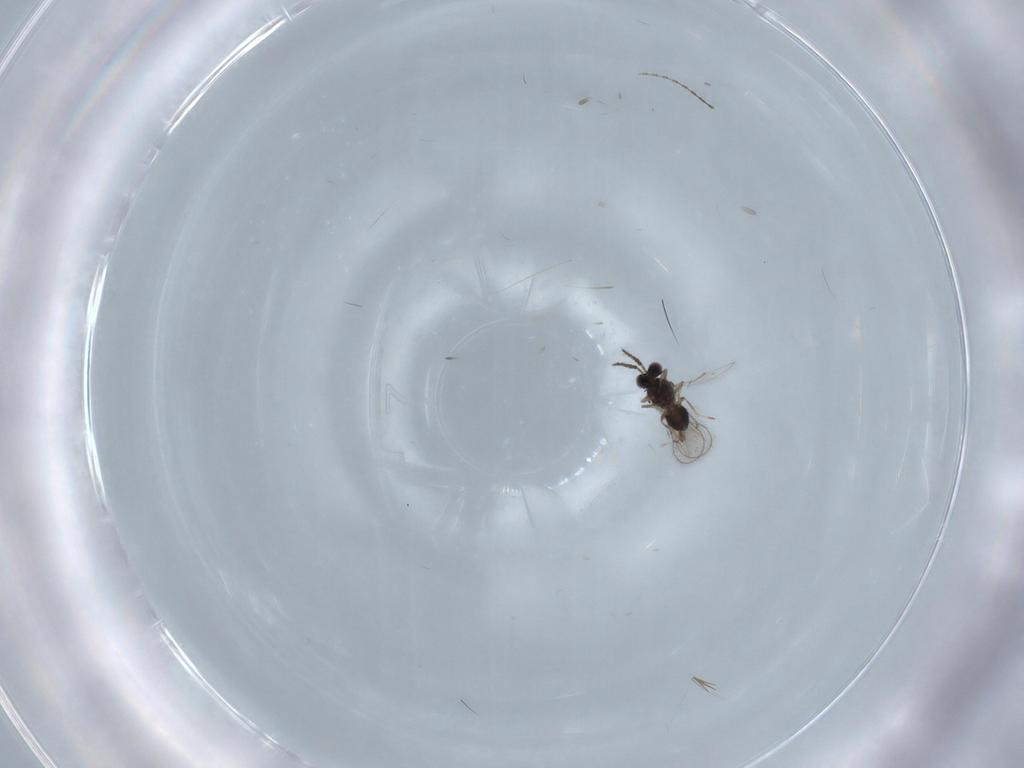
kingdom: Animalia
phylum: Arthropoda
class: Insecta
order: Hymenoptera
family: Eulophidae
